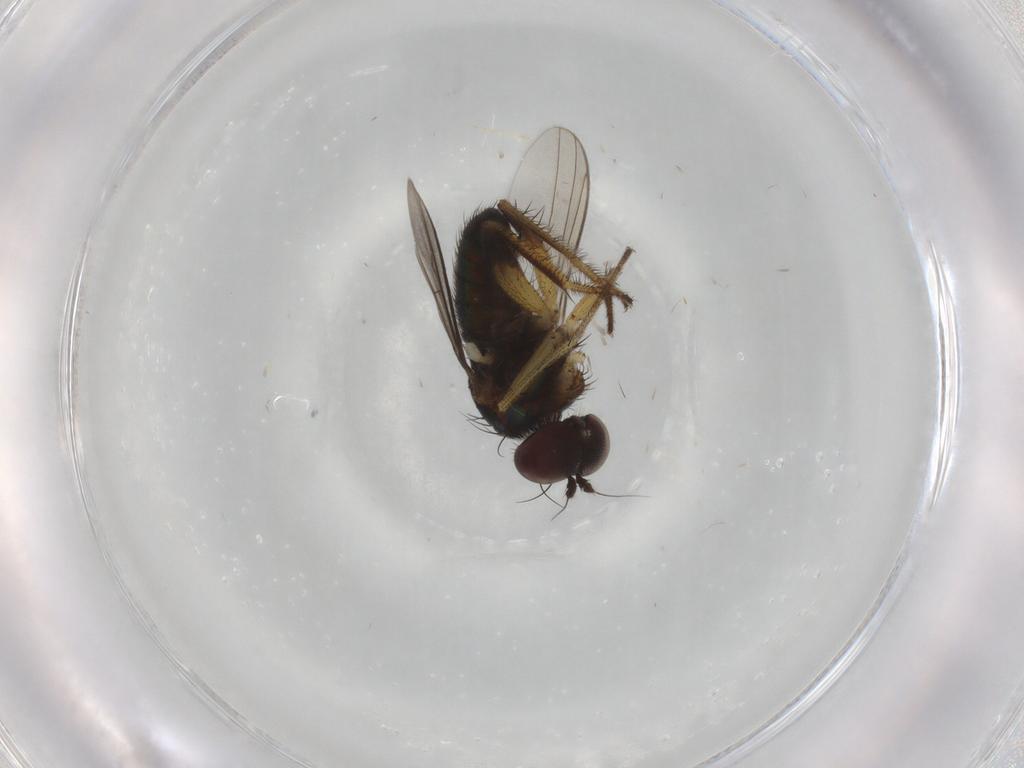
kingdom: Animalia
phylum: Arthropoda
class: Insecta
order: Diptera
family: Dolichopodidae
